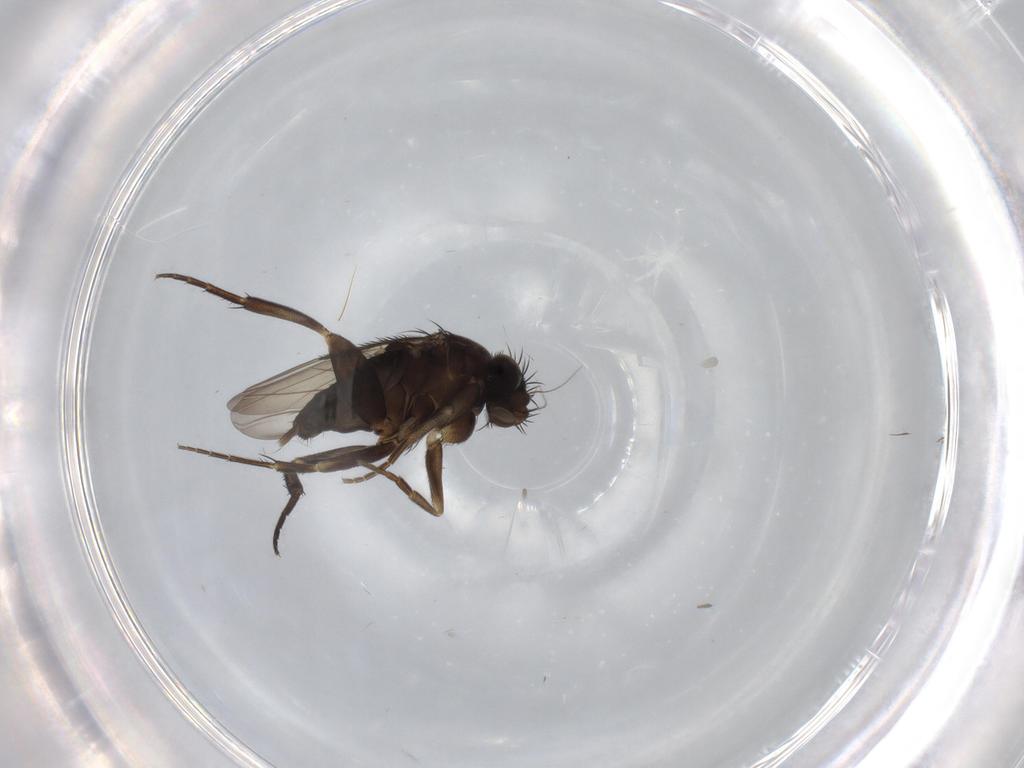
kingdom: Animalia
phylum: Arthropoda
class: Insecta
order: Diptera
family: Phoridae
